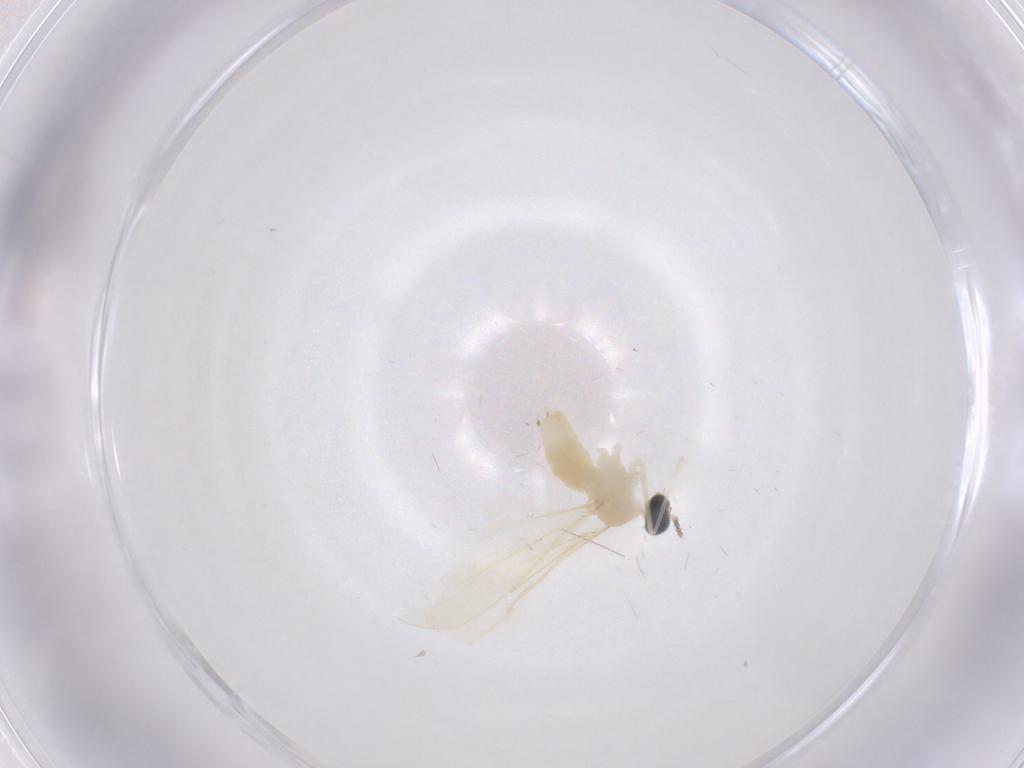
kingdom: Animalia
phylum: Arthropoda
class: Insecta
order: Diptera
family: Cecidomyiidae
